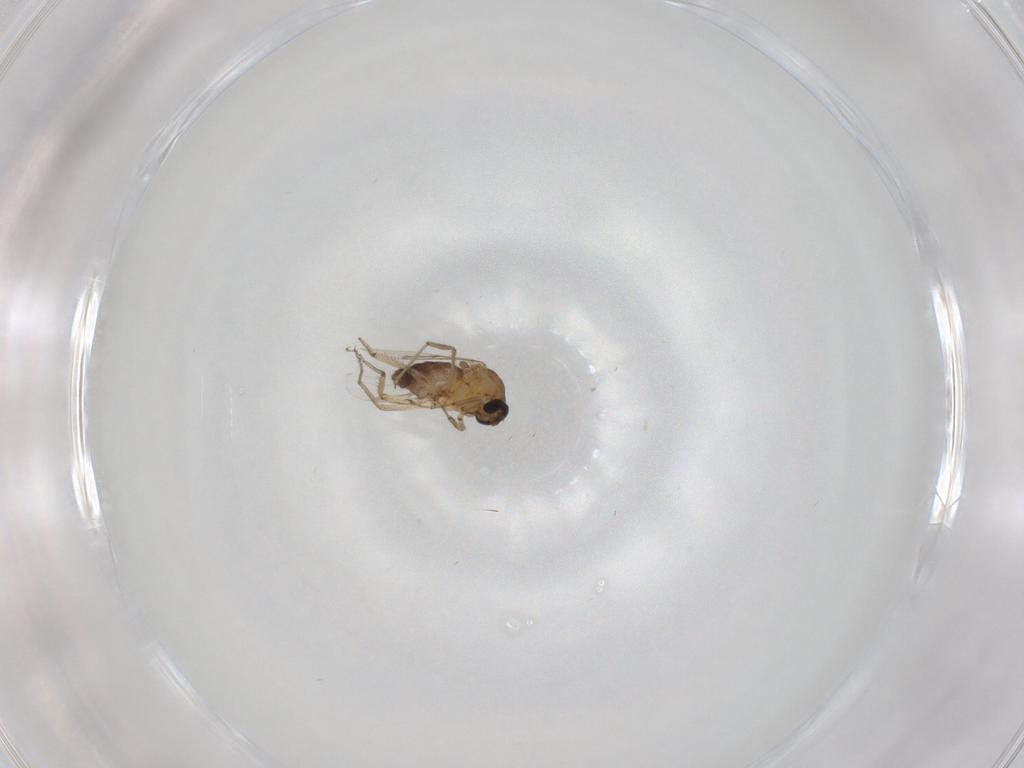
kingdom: Animalia
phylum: Arthropoda
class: Insecta
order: Diptera
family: Ceratopogonidae
